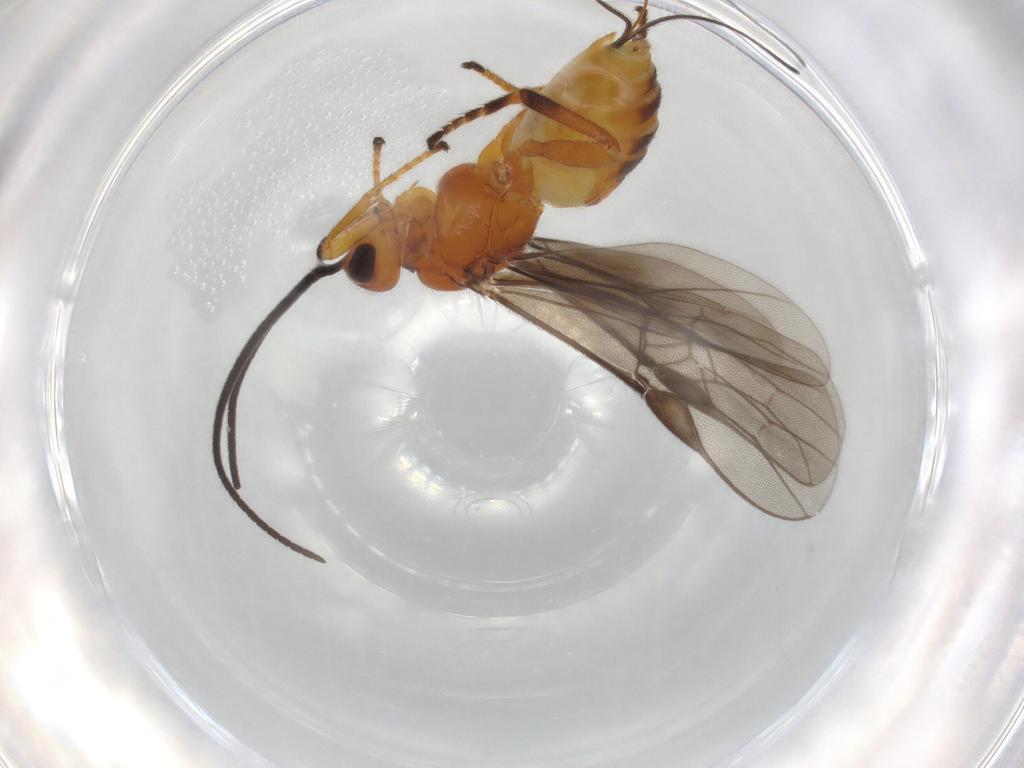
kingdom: Animalia
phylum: Arthropoda
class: Insecta
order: Hymenoptera
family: Braconidae
